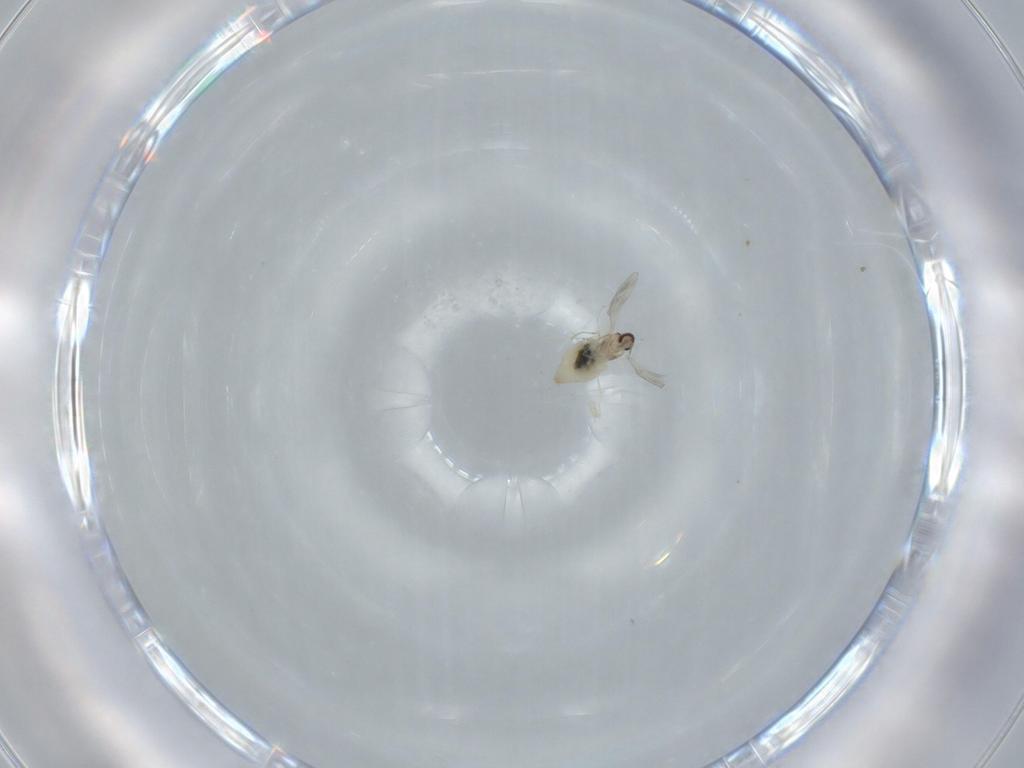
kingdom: Animalia
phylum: Arthropoda
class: Insecta
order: Diptera
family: Cecidomyiidae
